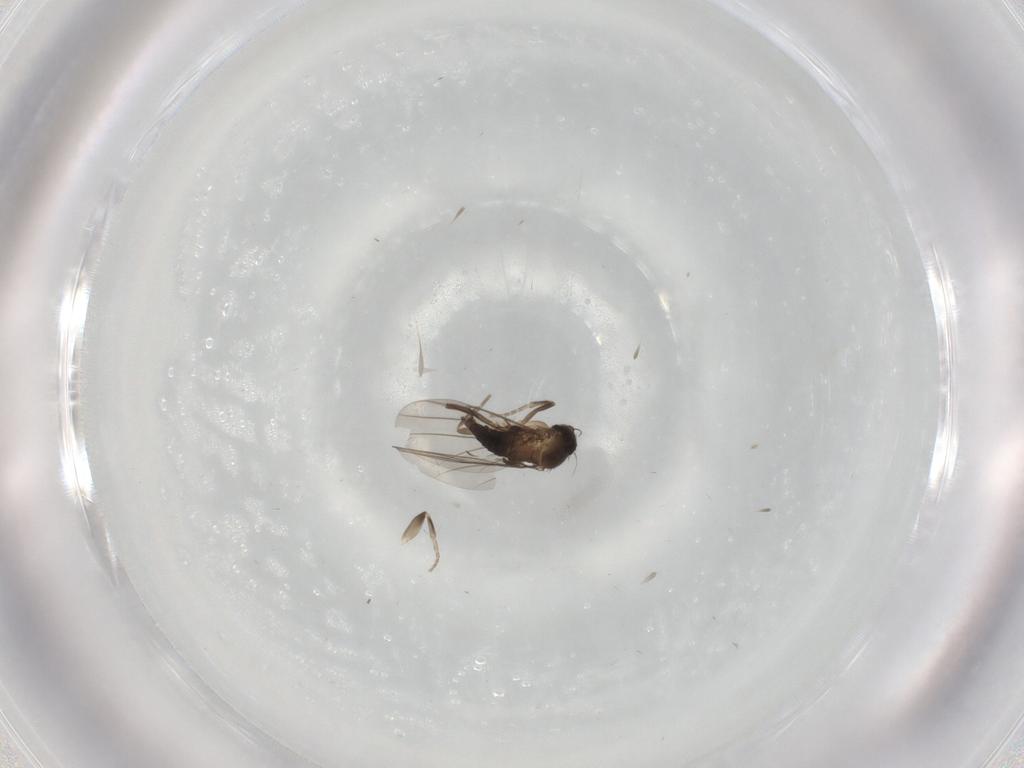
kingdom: Animalia
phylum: Arthropoda
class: Insecta
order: Diptera
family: Phoridae
